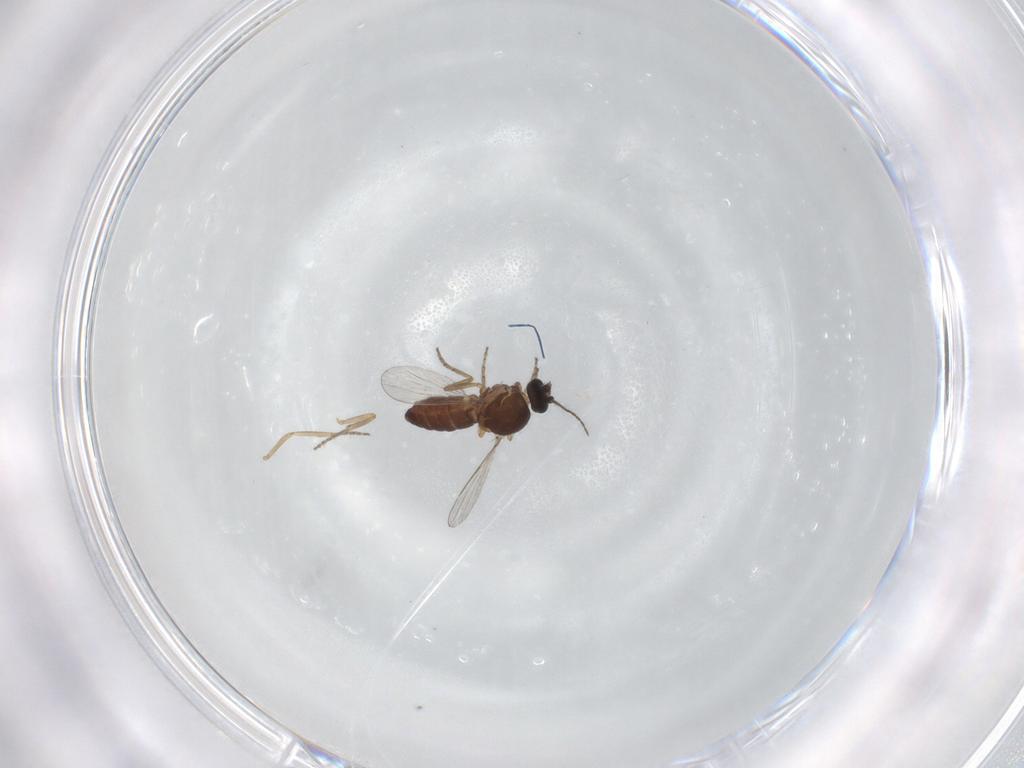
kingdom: Animalia
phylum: Arthropoda
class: Insecta
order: Diptera
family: Ceratopogonidae
